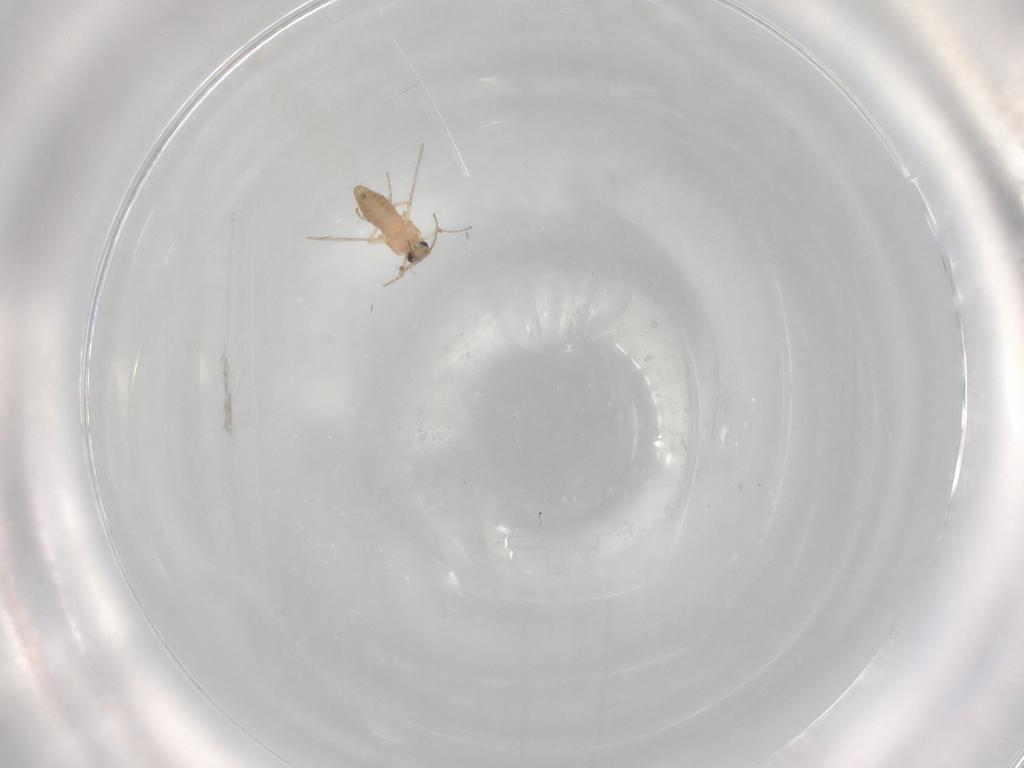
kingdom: Animalia
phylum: Arthropoda
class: Insecta
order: Diptera
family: Ceratopogonidae
